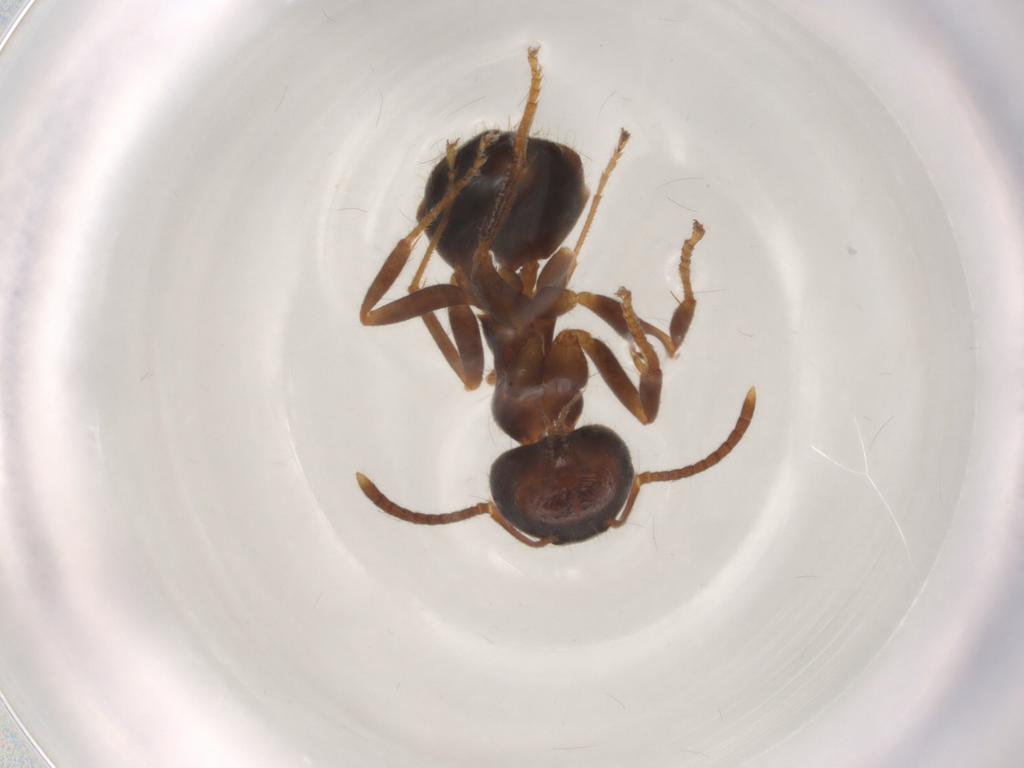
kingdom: Animalia
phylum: Arthropoda
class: Insecta
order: Hymenoptera
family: Formicidae
